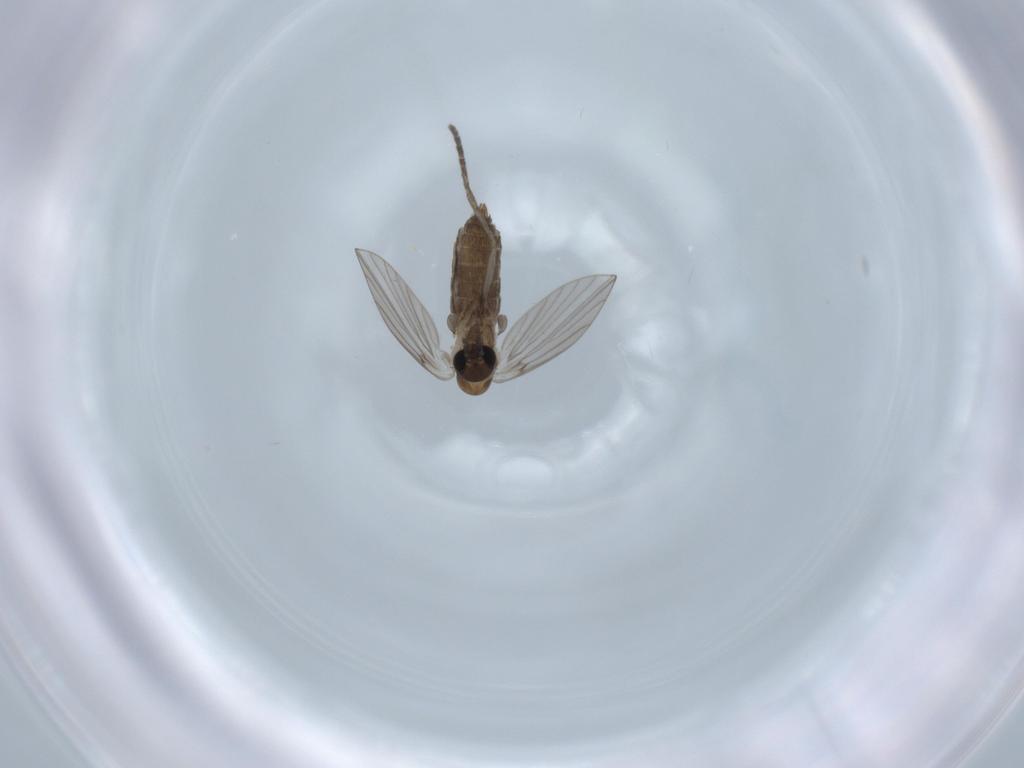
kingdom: Animalia
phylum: Arthropoda
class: Insecta
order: Diptera
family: Psychodidae
